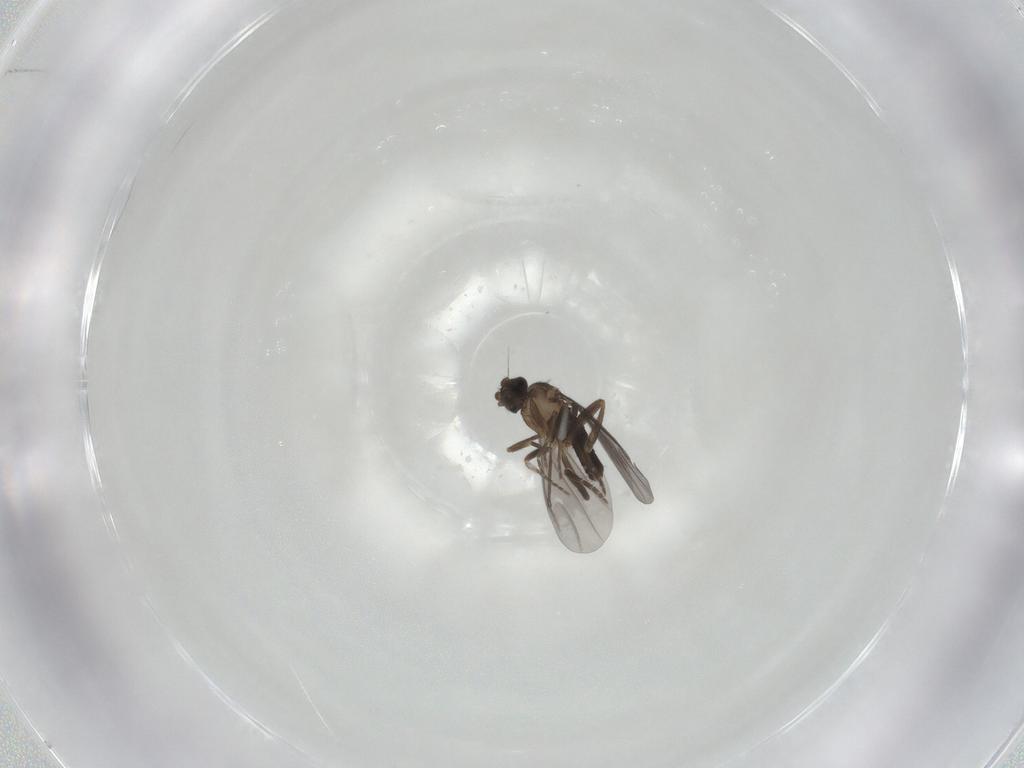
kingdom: Animalia
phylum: Arthropoda
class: Insecta
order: Diptera
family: Phoridae
